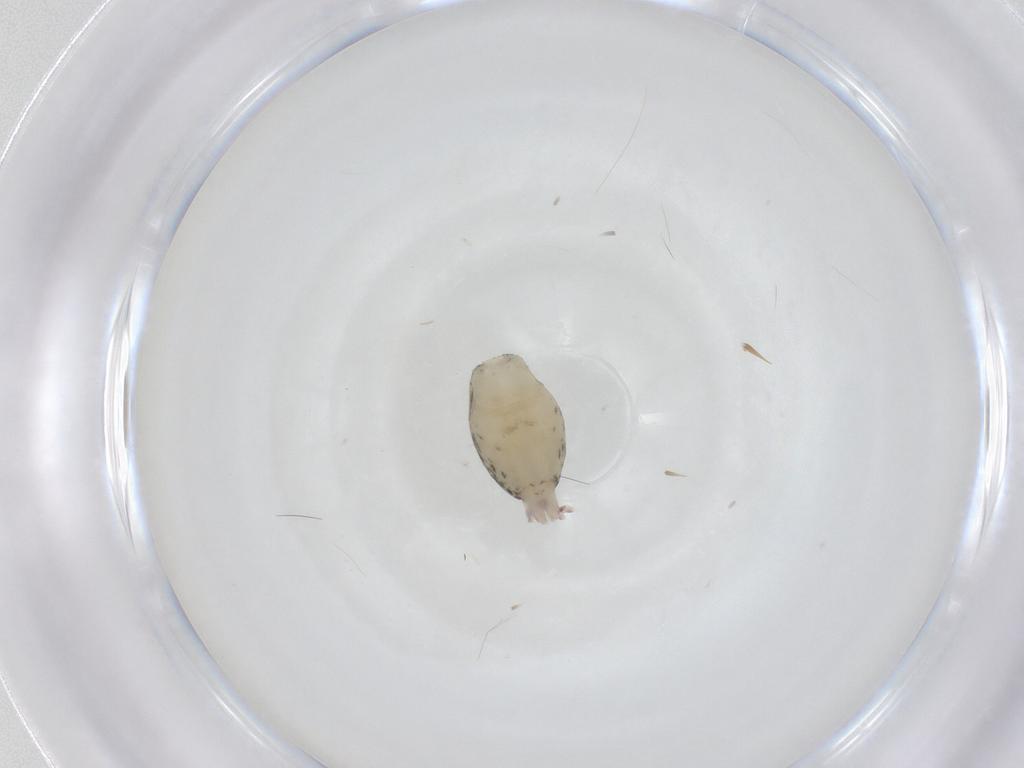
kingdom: Animalia
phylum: Arthropoda
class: Arachnida
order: Araneae
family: Anyphaenidae
